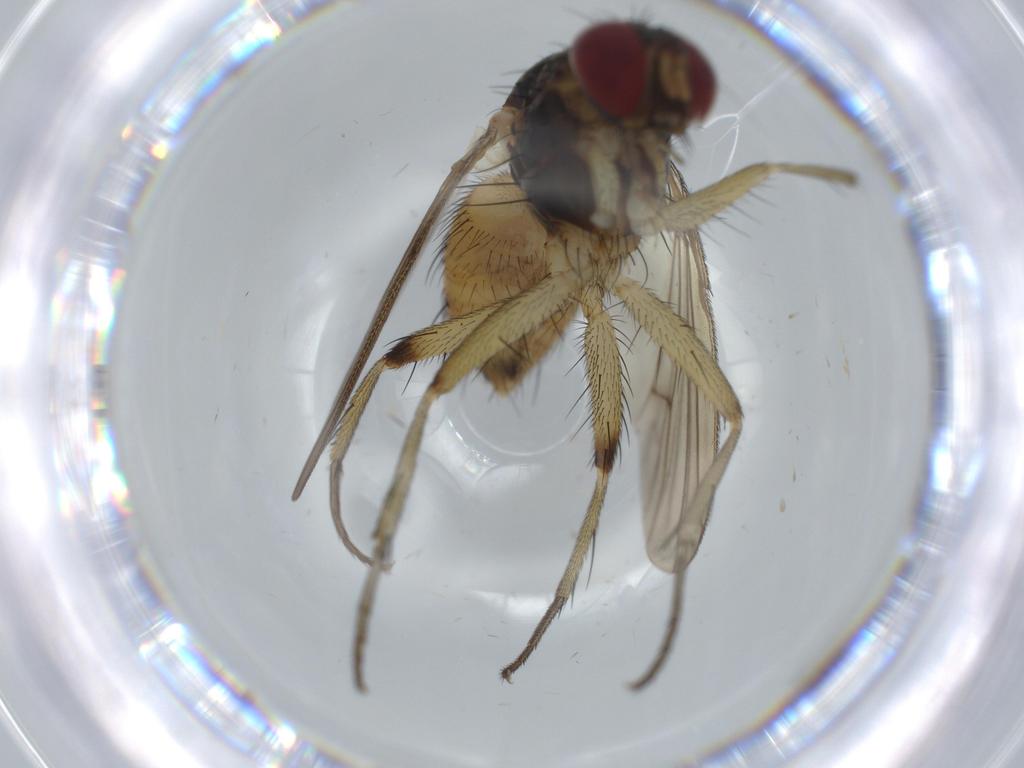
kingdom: Animalia
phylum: Arthropoda
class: Insecta
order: Diptera
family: Muscidae
